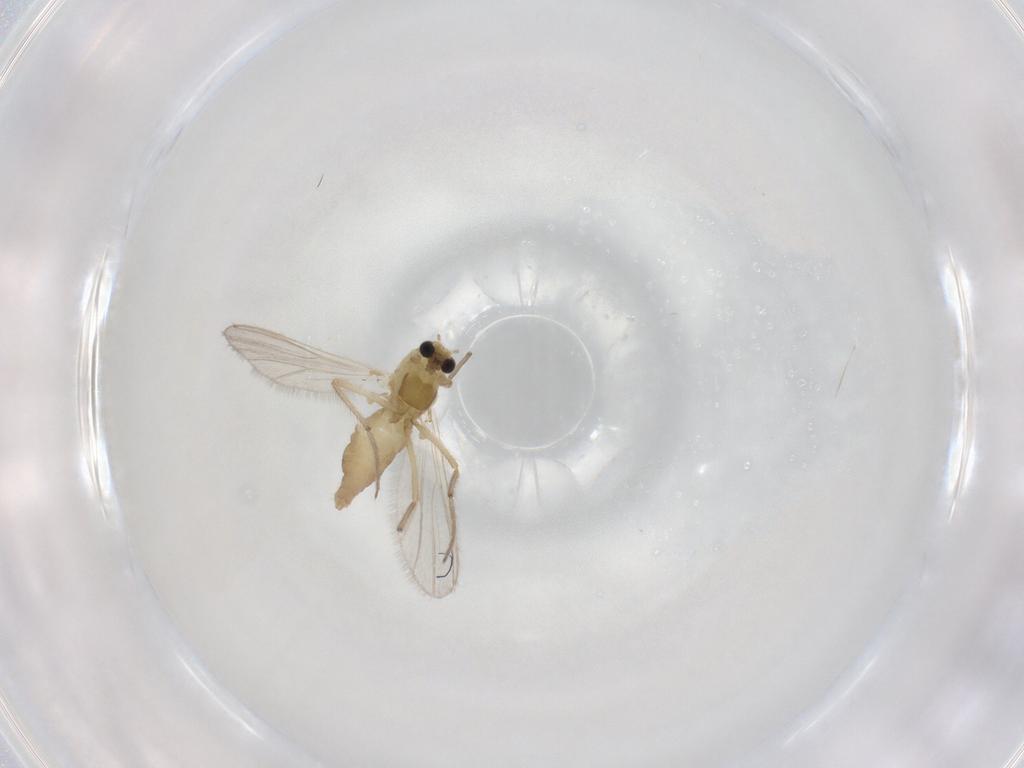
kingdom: Animalia
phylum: Arthropoda
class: Insecta
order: Diptera
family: Chironomidae
